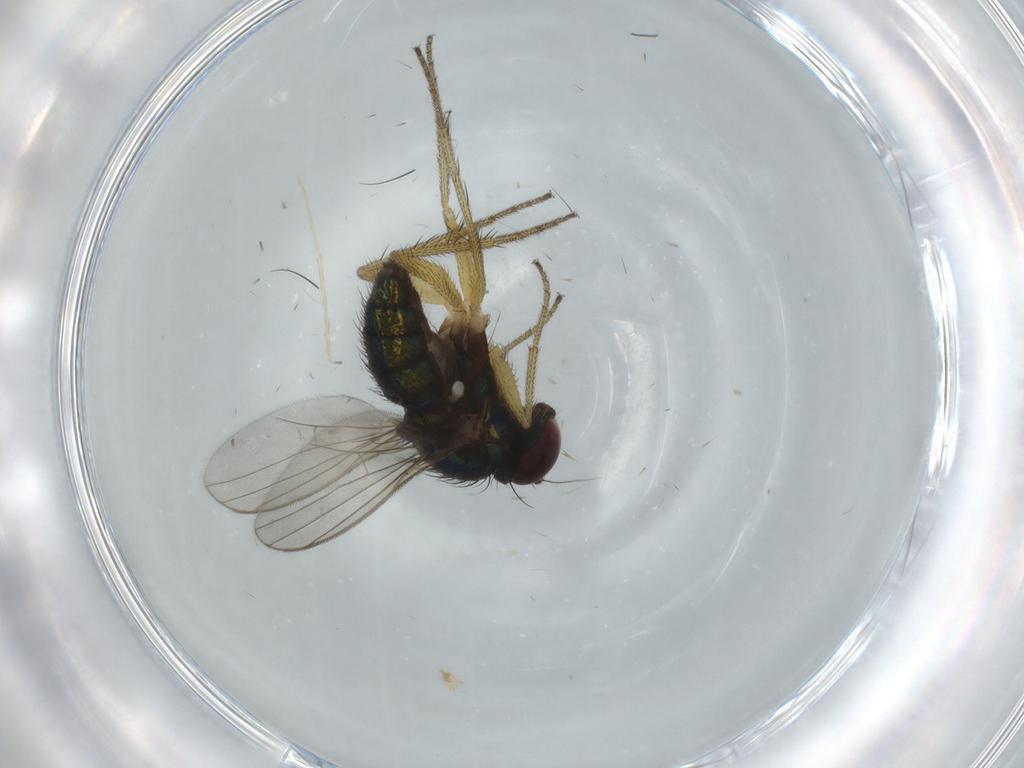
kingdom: Animalia
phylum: Arthropoda
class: Insecta
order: Diptera
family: Dolichopodidae
